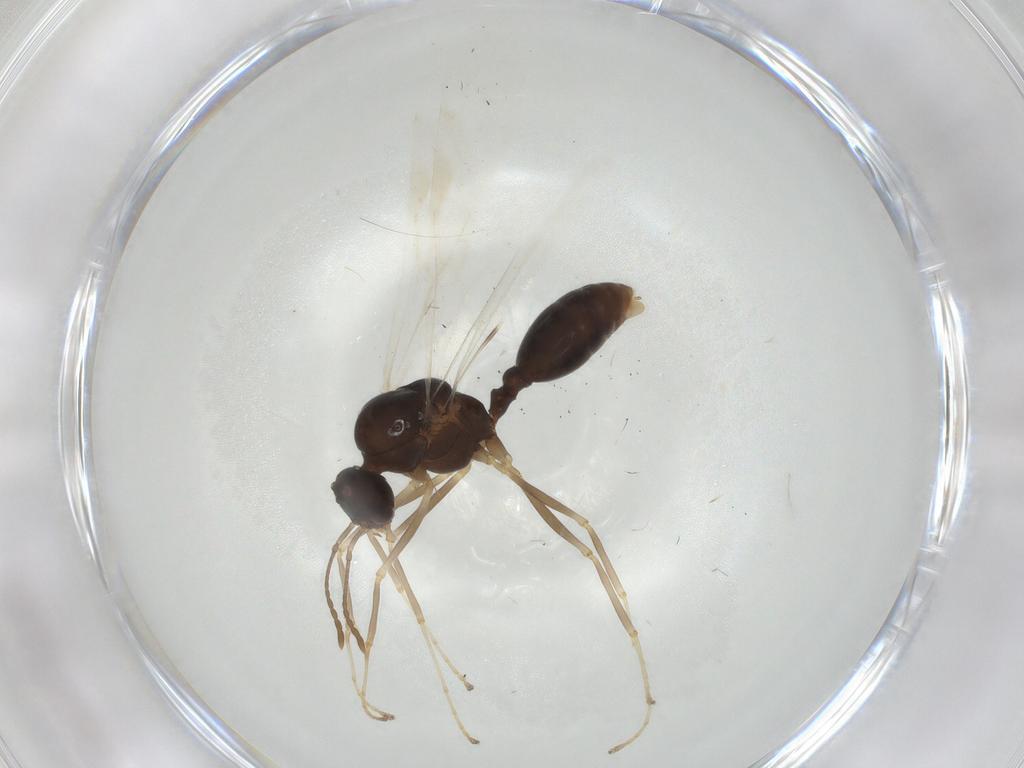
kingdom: Animalia
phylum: Arthropoda
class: Insecta
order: Hymenoptera
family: Formicidae
